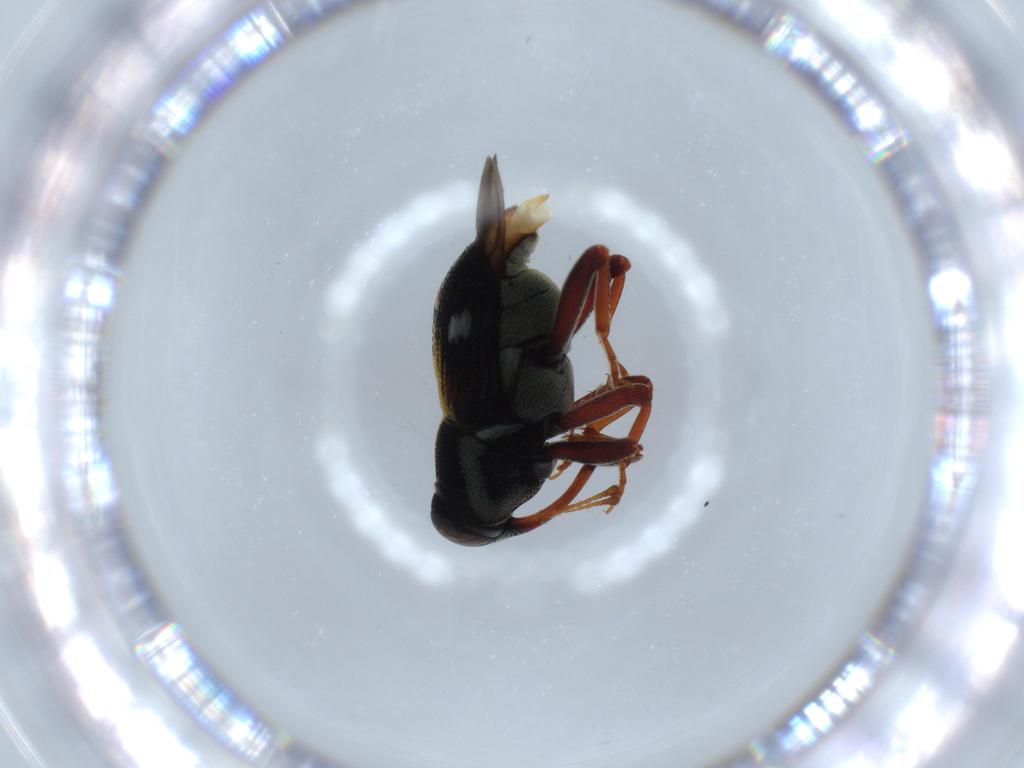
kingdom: Animalia
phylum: Arthropoda
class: Insecta
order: Coleoptera
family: Curculionidae
